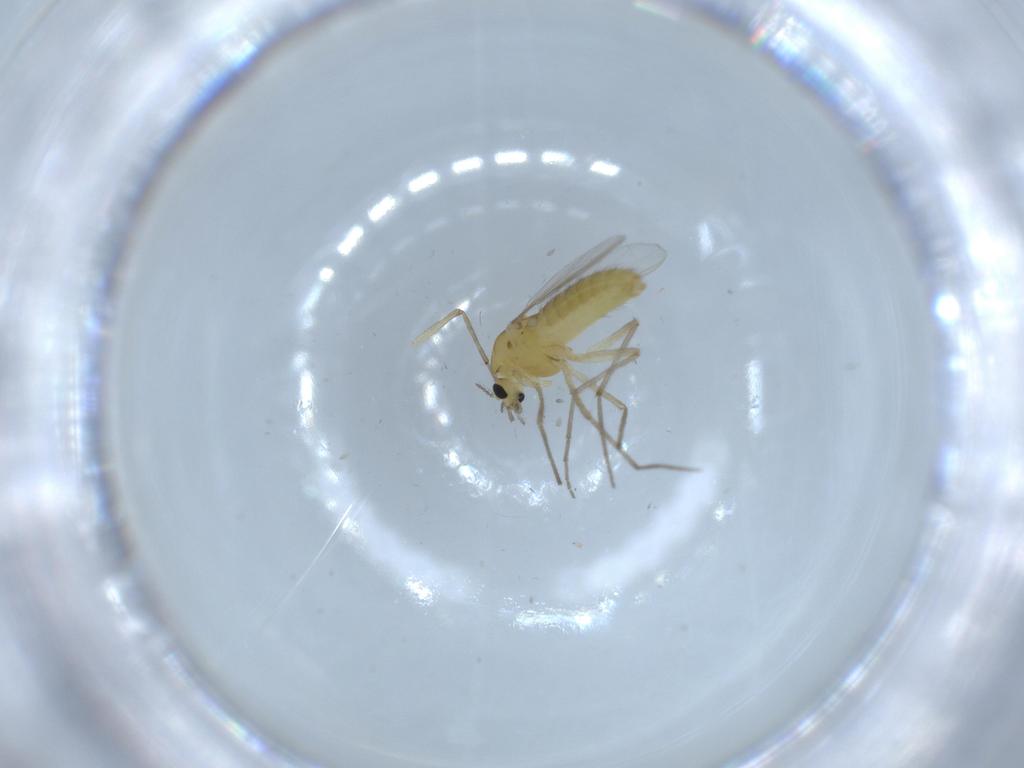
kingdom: Animalia
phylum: Arthropoda
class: Insecta
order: Diptera
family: Chironomidae
